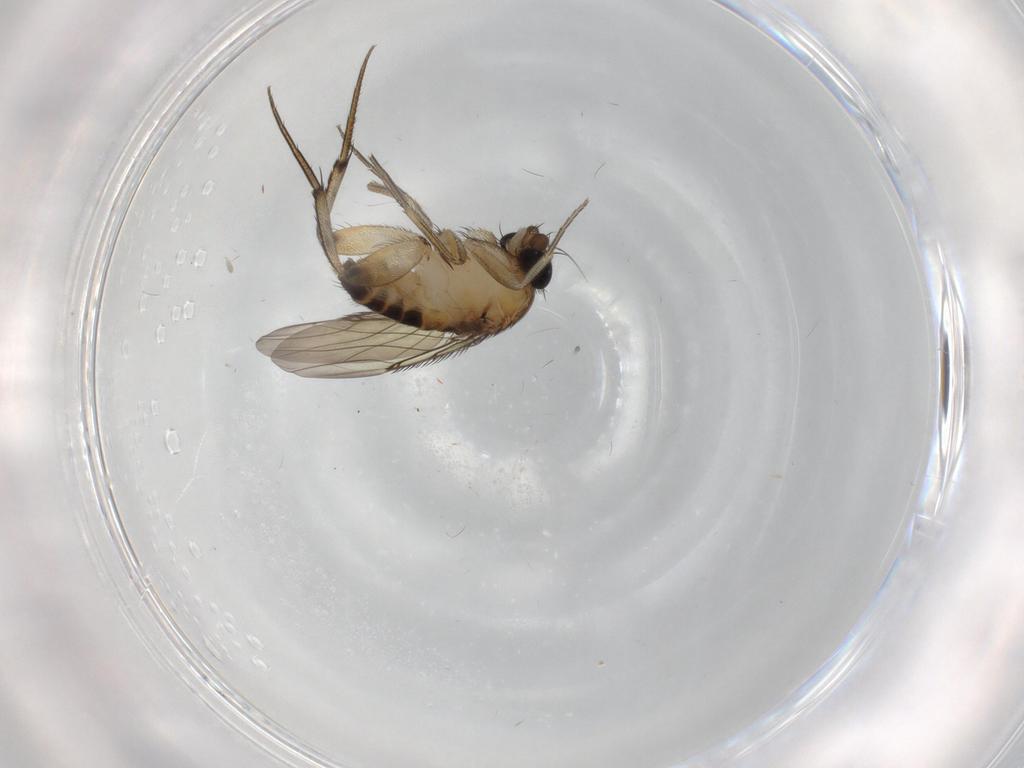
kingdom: Animalia
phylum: Arthropoda
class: Insecta
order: Diptera
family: Phoridae
